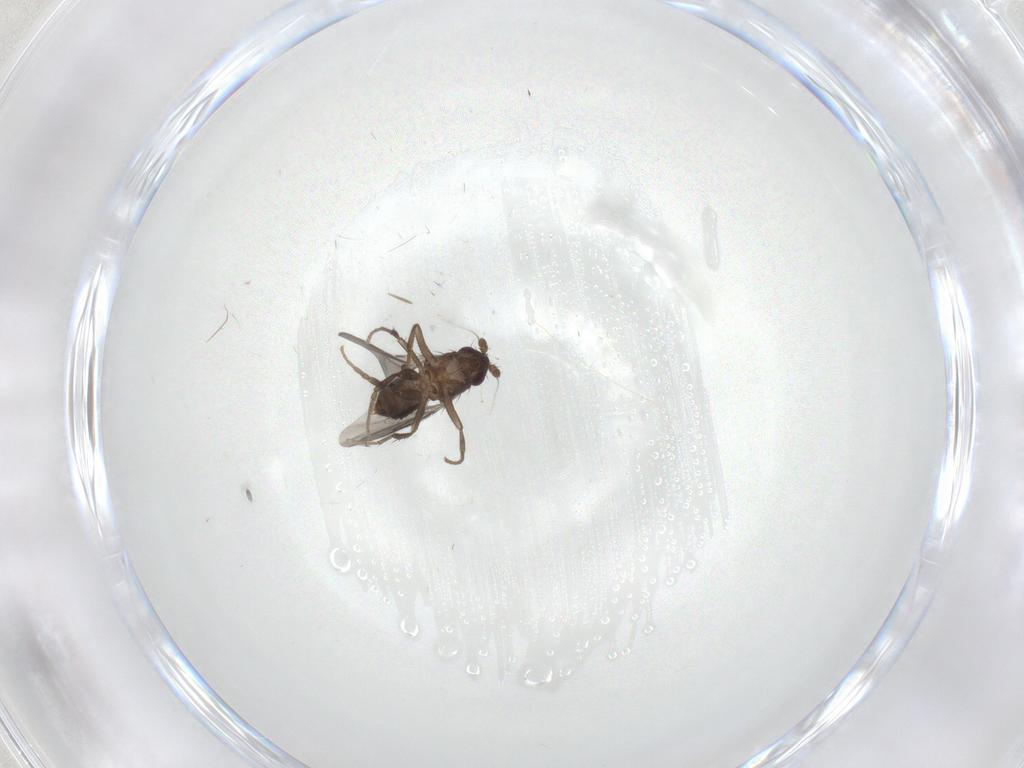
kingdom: Animalia
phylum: Arthropoda
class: Insecta
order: Diptera
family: Sphaeroceridae
